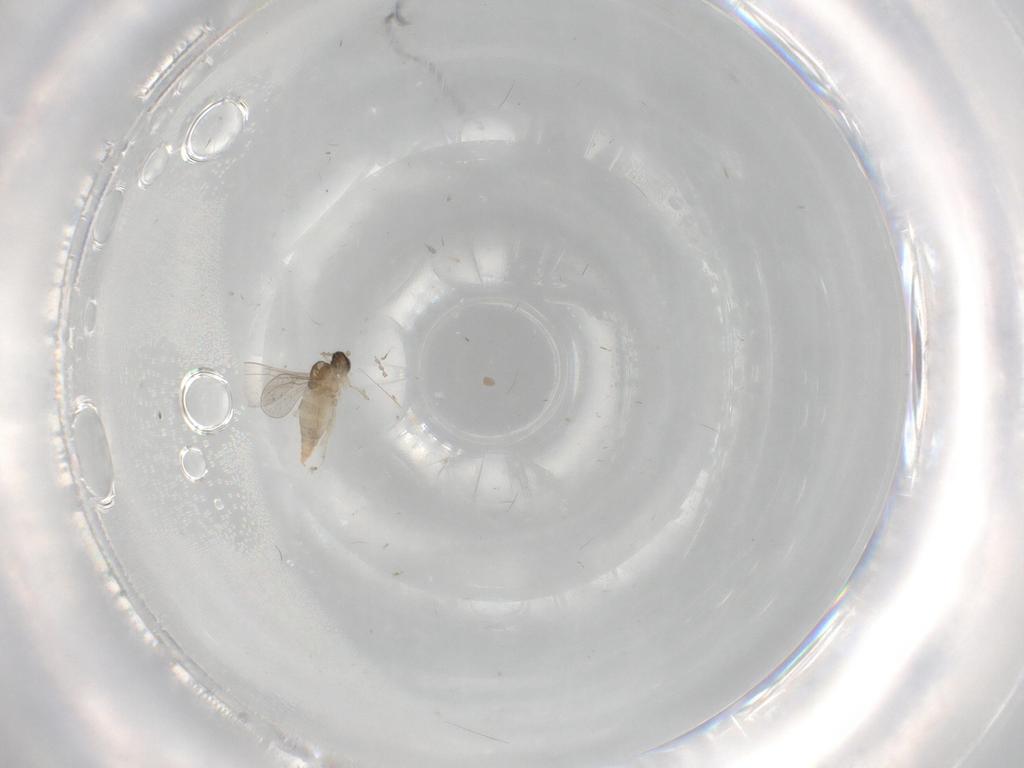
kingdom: Animalia
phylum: Arthropoda
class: Insecta
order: Diptera
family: Cecidomyiidae
